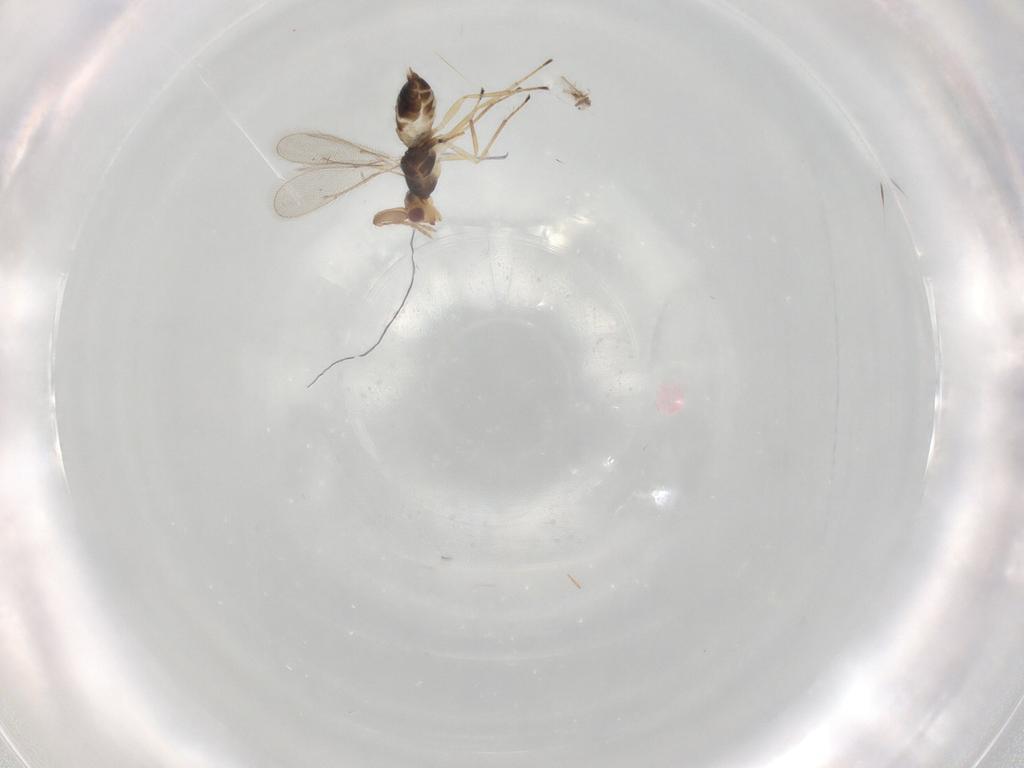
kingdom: Animalia
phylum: Arthropoda
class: Insecta
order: Hymenoptera
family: Eulophidae
